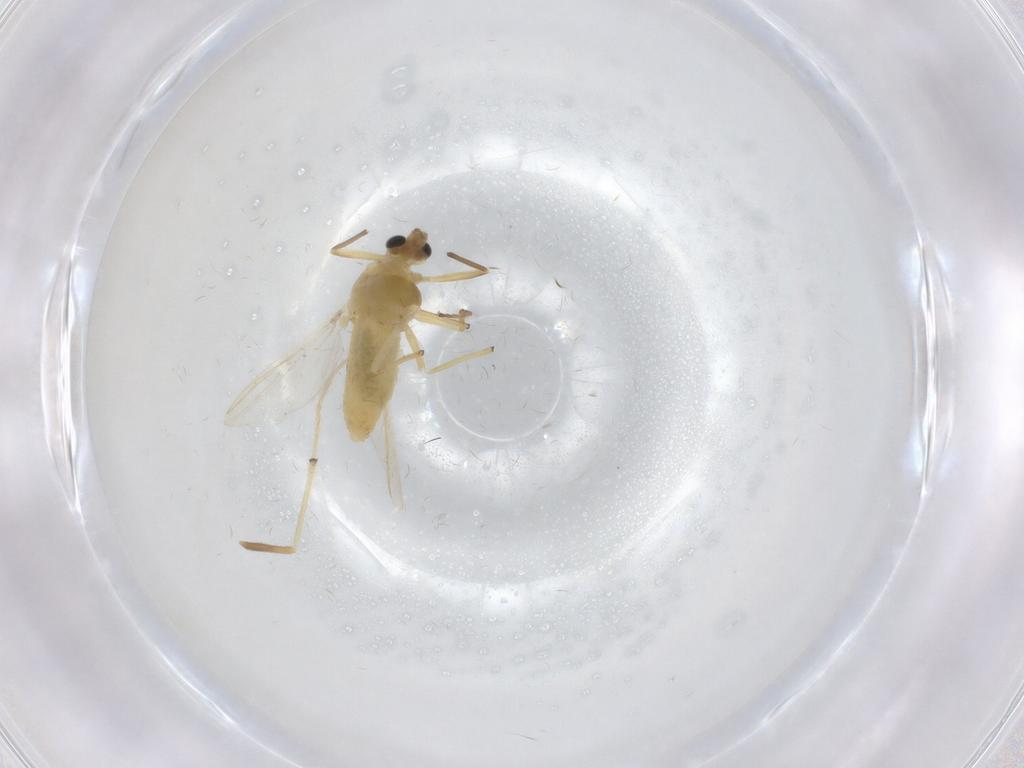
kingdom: Animalia
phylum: Arthropoda
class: Insecta
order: Diptera
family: Chironomidae
